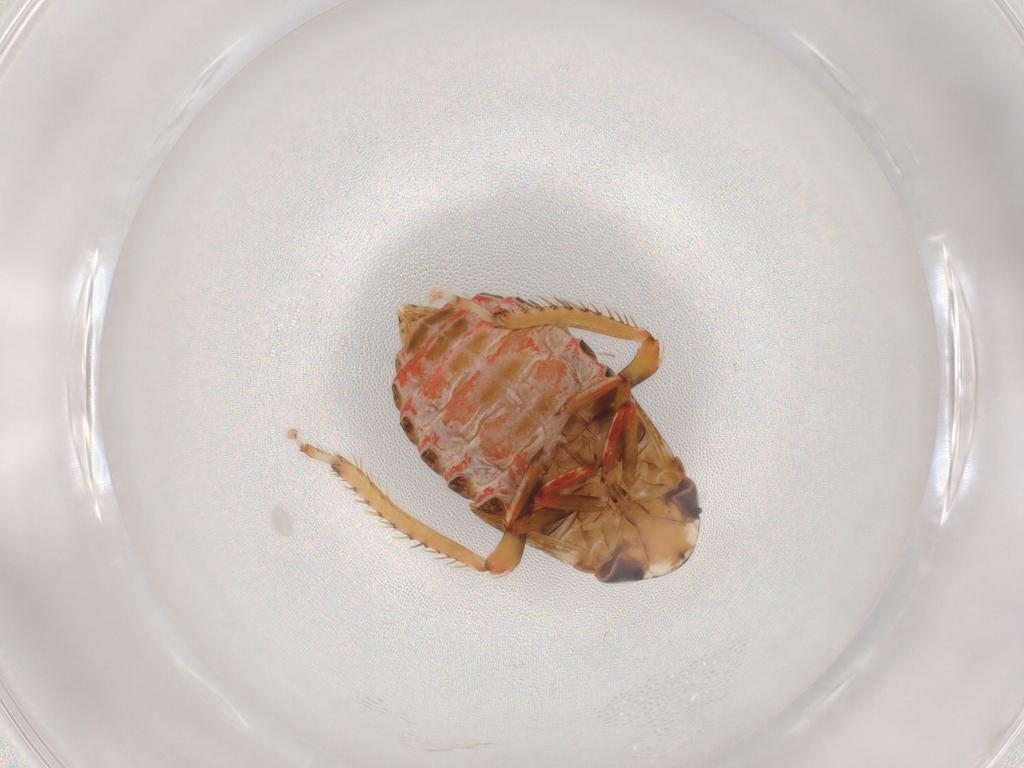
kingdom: Animalia
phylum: Arthropoda
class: Insecta
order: Hemiptera
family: Cicadellidae
